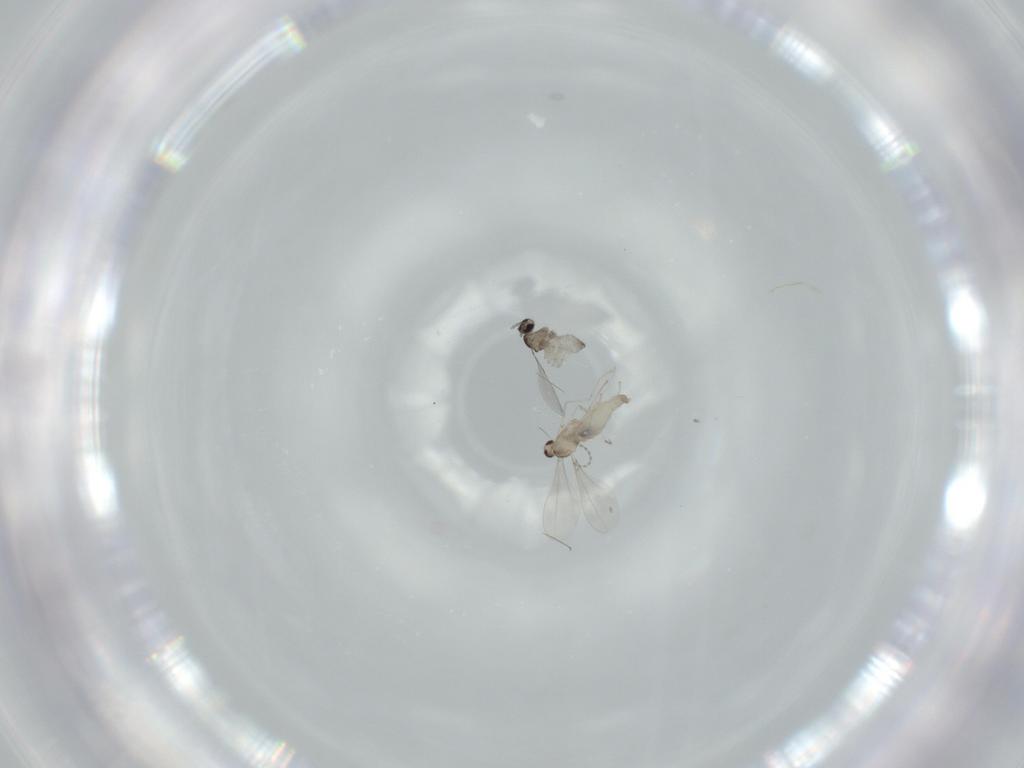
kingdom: Animalia
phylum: Arthropoda
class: Insecta
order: Diptera
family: Cecidomyiidae
